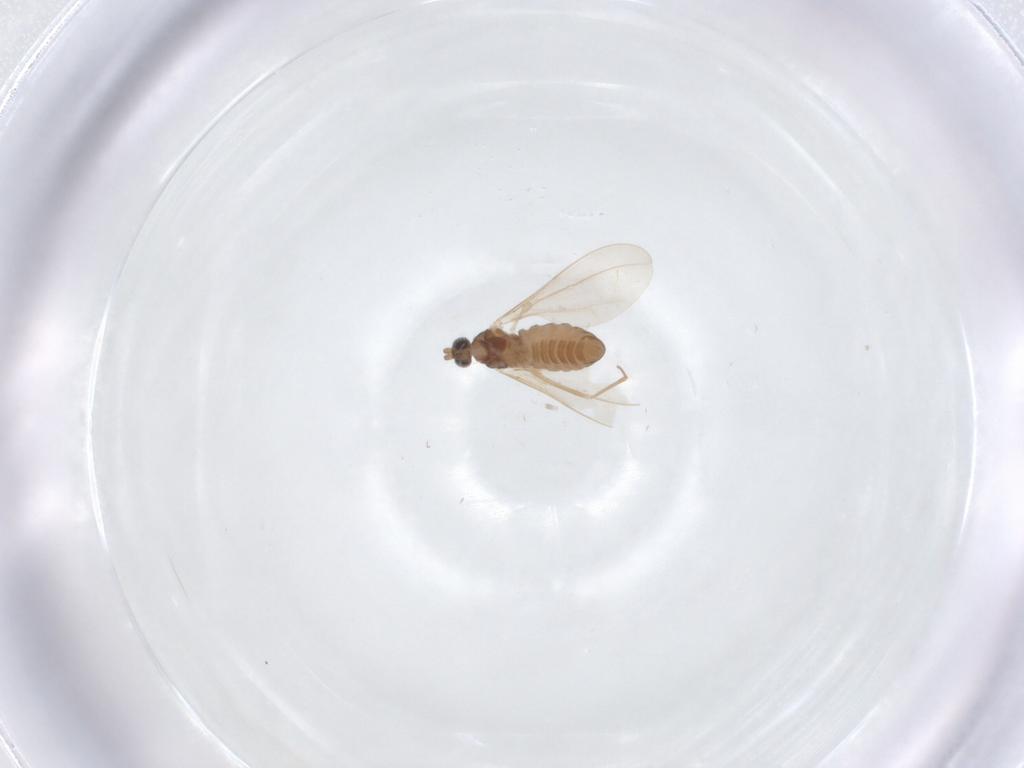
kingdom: Animalia
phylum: Arthropoda
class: Insecta
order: Diptera
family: Cecidomyiidae
